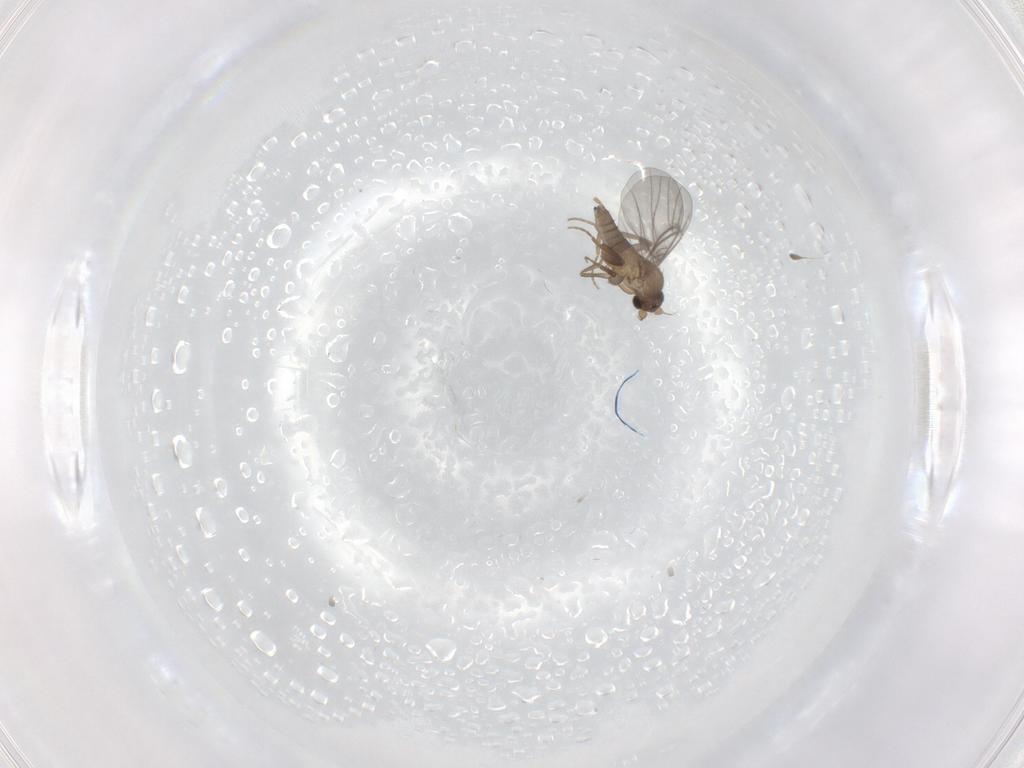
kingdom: Animalia
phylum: Arthropoda
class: Insecta
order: Diptera
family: Psychodidae
